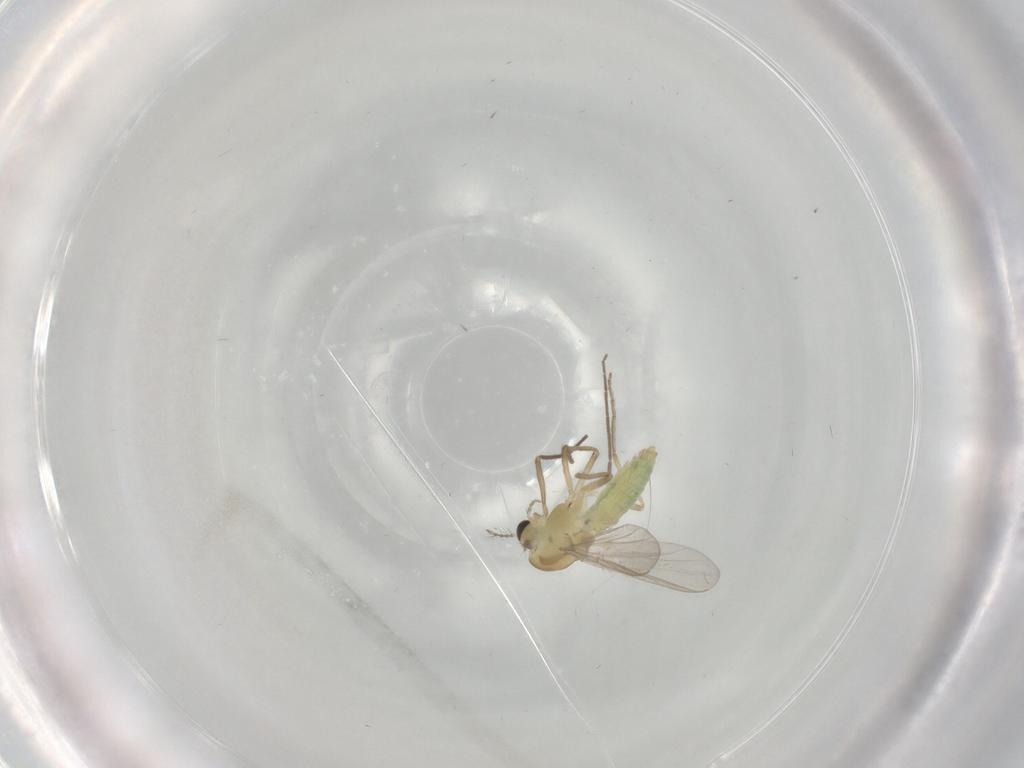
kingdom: Animalia
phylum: Arthropoda
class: Insecta
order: Diptera
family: Chironomidae
